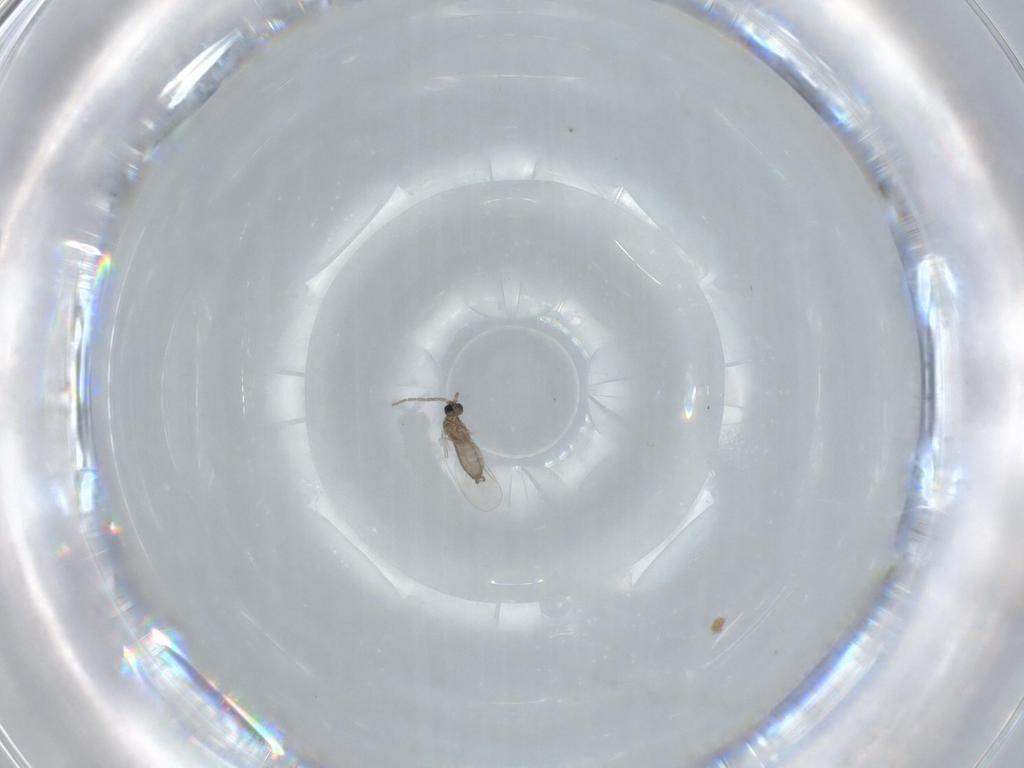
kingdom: Animalia
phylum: Arthropoda
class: Insecta
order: Diptera
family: Cecidomyiidae
